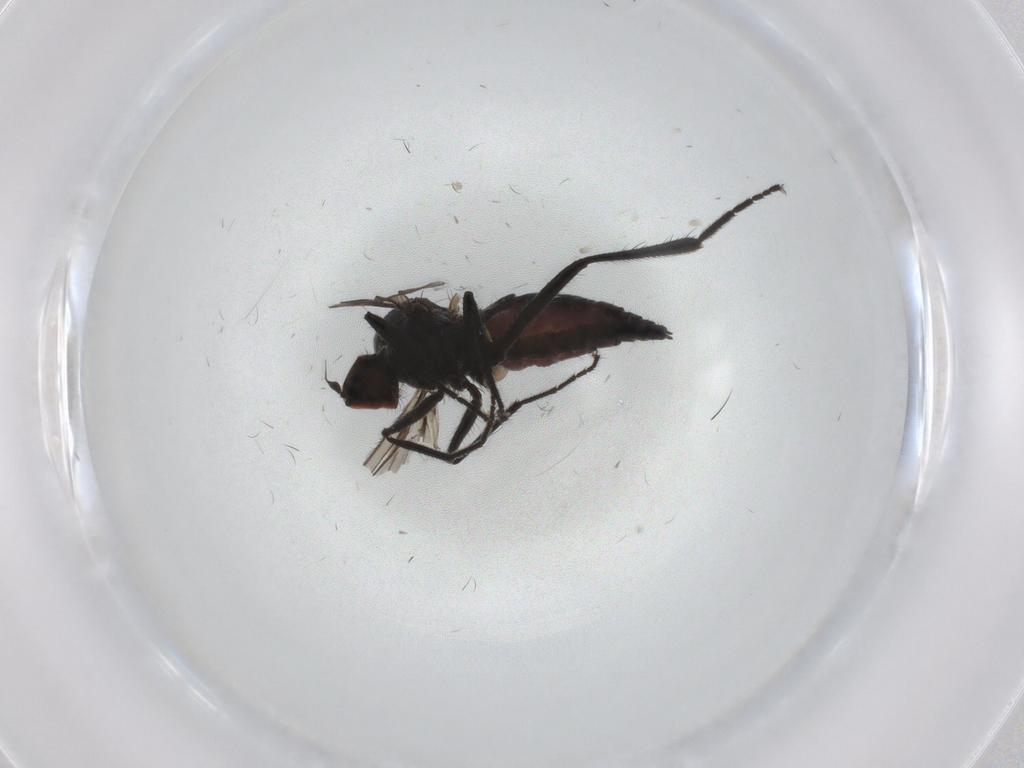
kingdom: Animalia
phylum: Arthropoda
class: Insecta
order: Diptera
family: Ceratopogonidae
